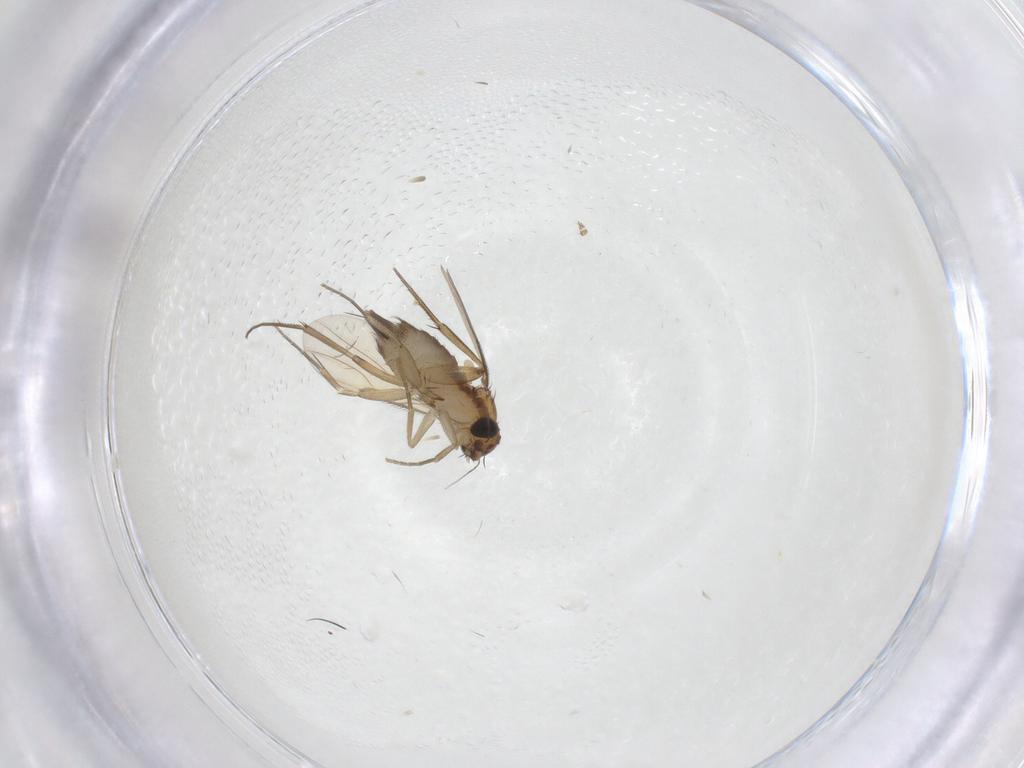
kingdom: Animalia
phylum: Arthropoda
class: Insecta
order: Diptera
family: Phoridae
